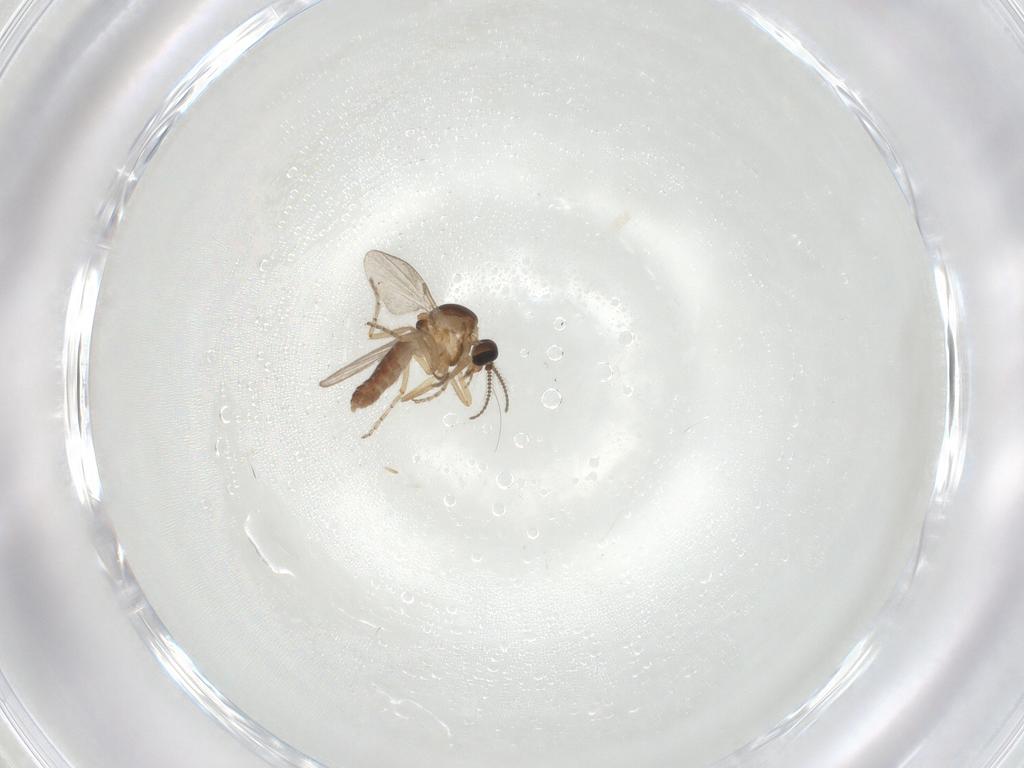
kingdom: Animalia
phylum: Arthropoda
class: Insecta
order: Diptera
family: Ceratopogonidae
